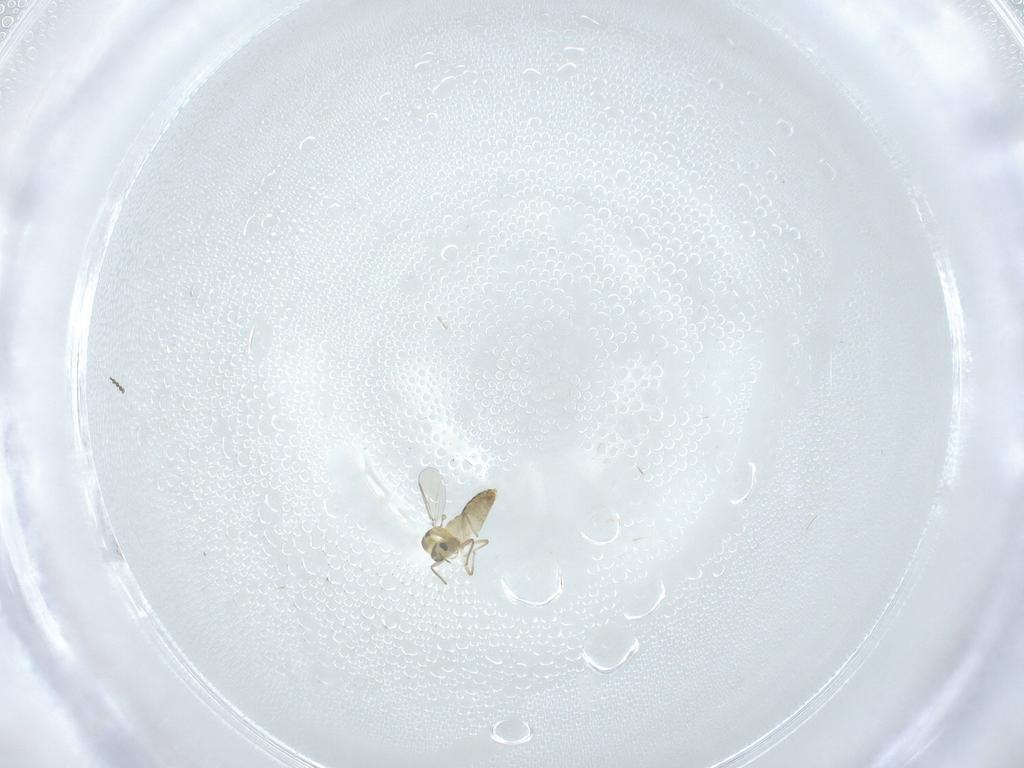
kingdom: Animalia
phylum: Arthropoda
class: Insecta
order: Diptera
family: Chironomidae
